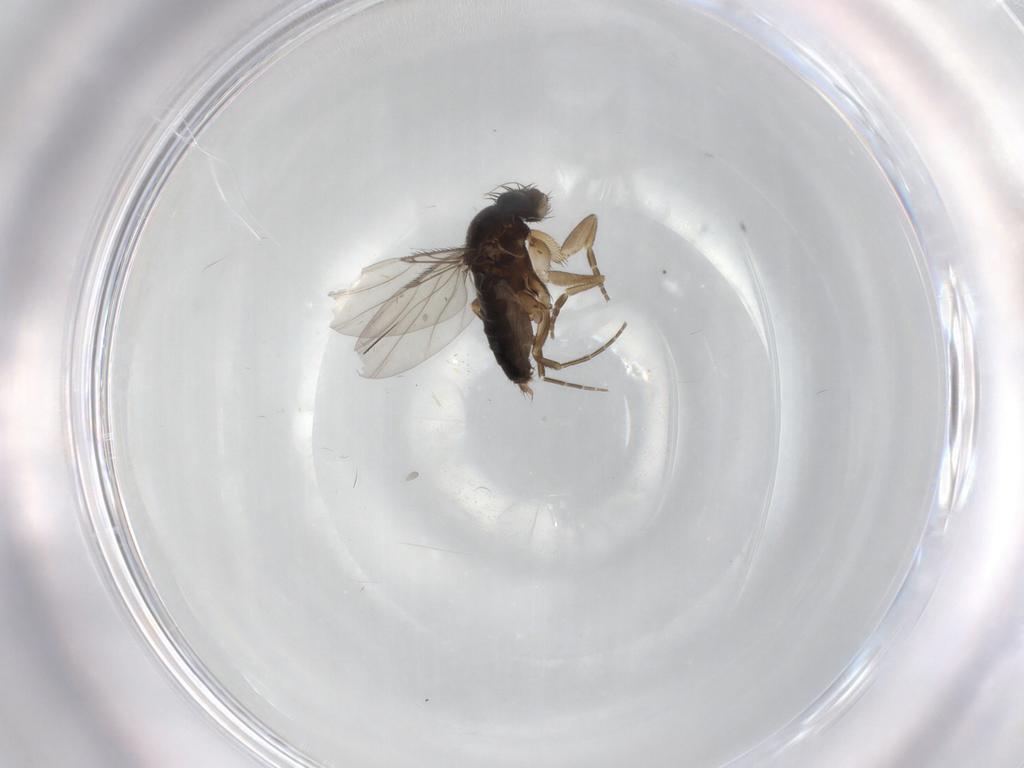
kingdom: Animalia
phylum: Arthropoda
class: Insecta
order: Diptera
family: Phoridae
